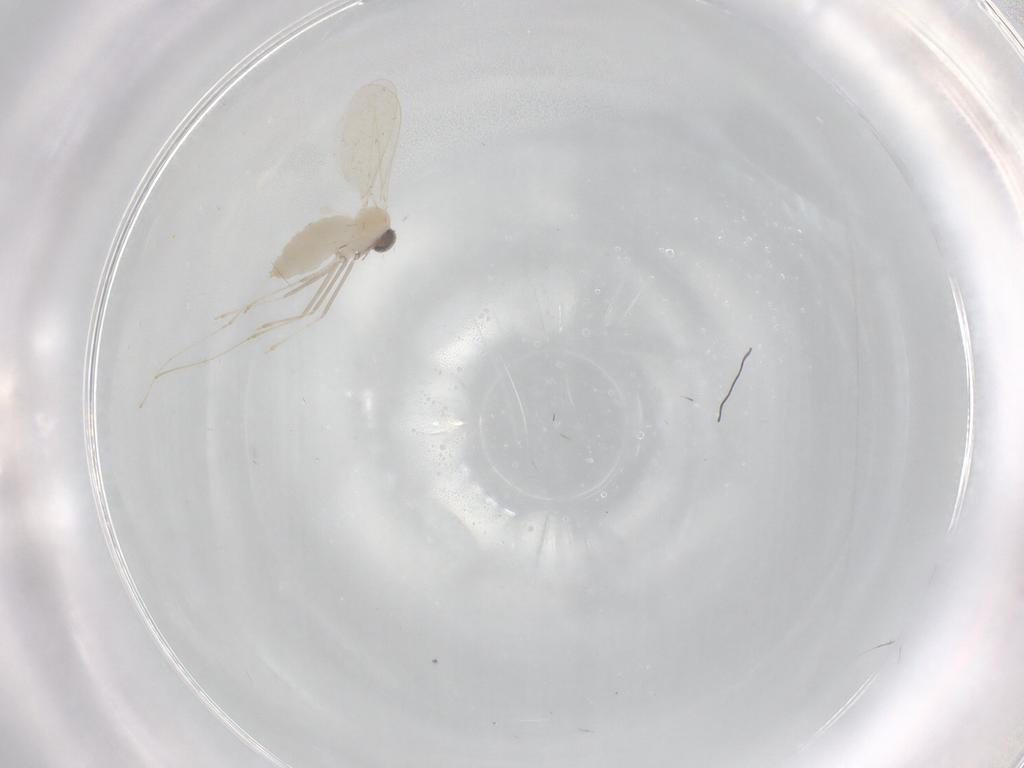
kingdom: Animalia
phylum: Arthropoda
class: Insecta
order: Diptera
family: Cecidomyiidae
